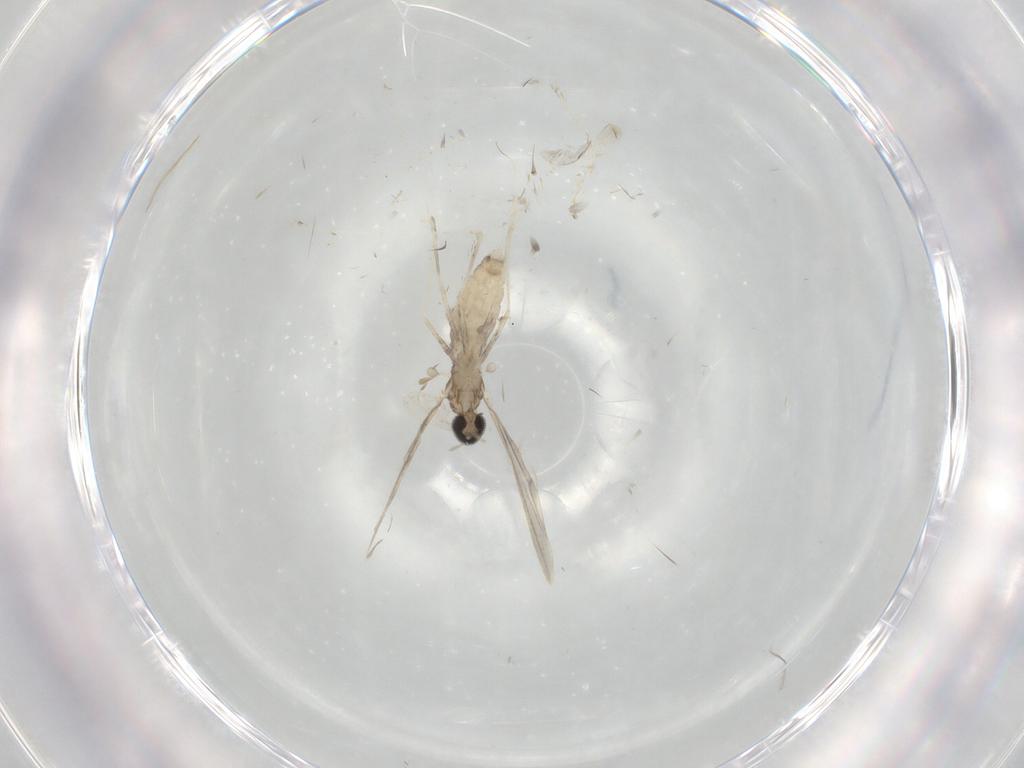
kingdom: Animalia
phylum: Arthropoda
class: Insecta
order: Diptera
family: Cecidomyiidae
